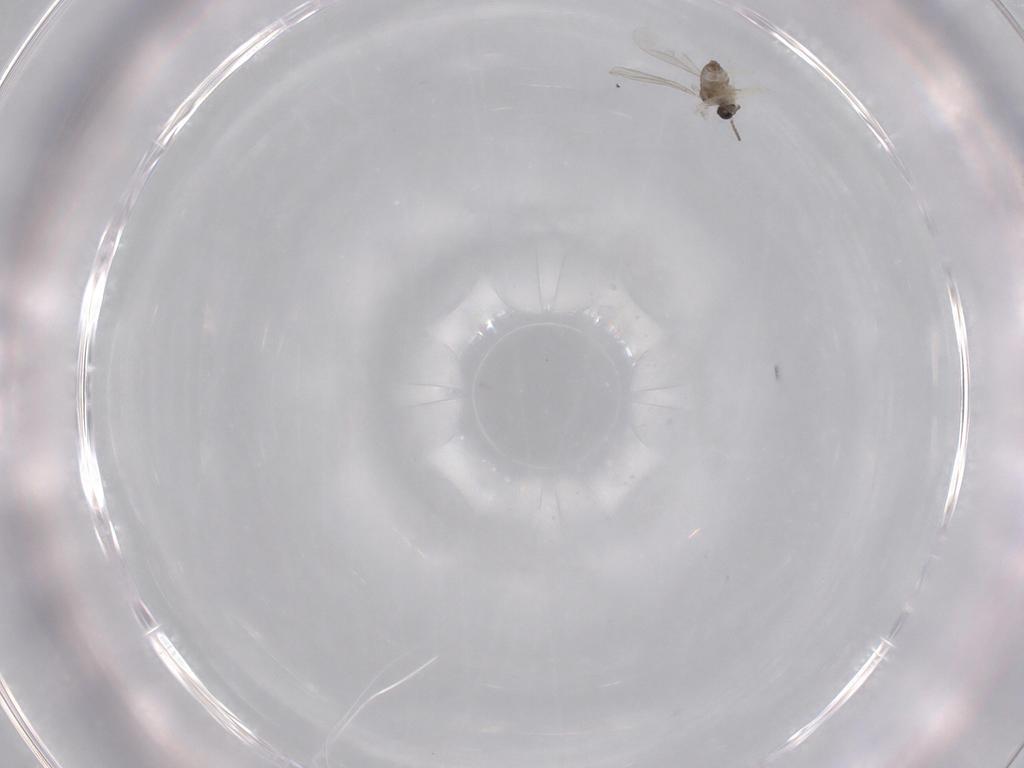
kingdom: Animalia
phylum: Arthropoda
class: Insecta
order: Diptera
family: Cecidomyiidae
